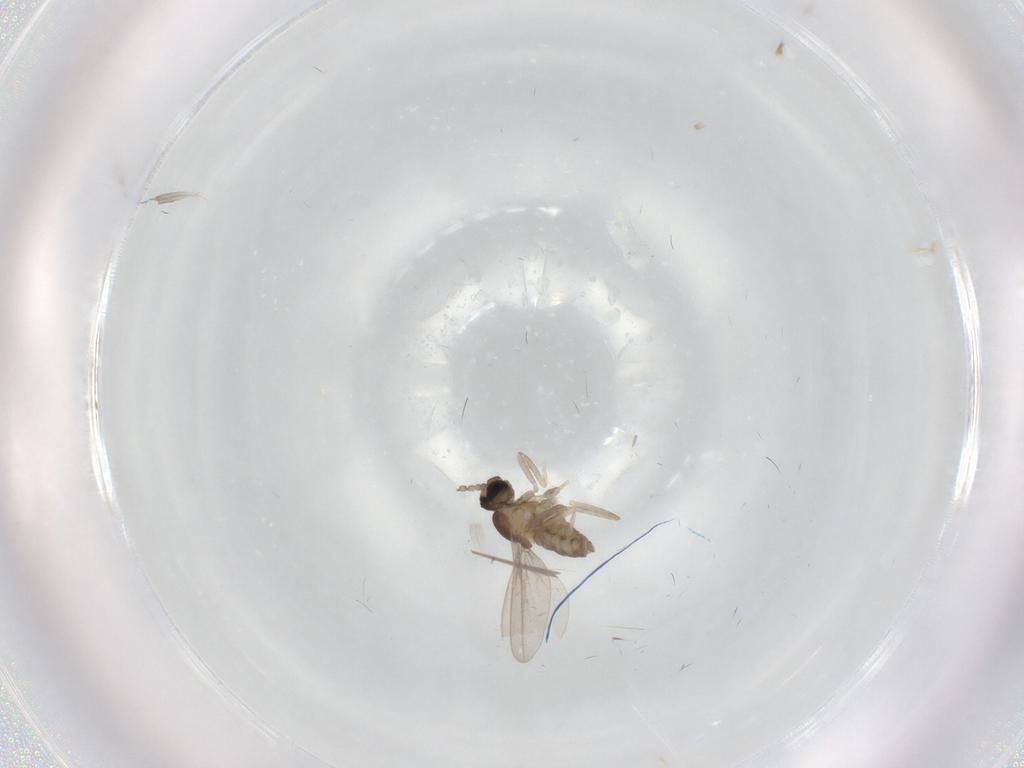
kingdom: Animalia
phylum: Arthropoda
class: Insecta
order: Diptera
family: Cecidomyiidae
